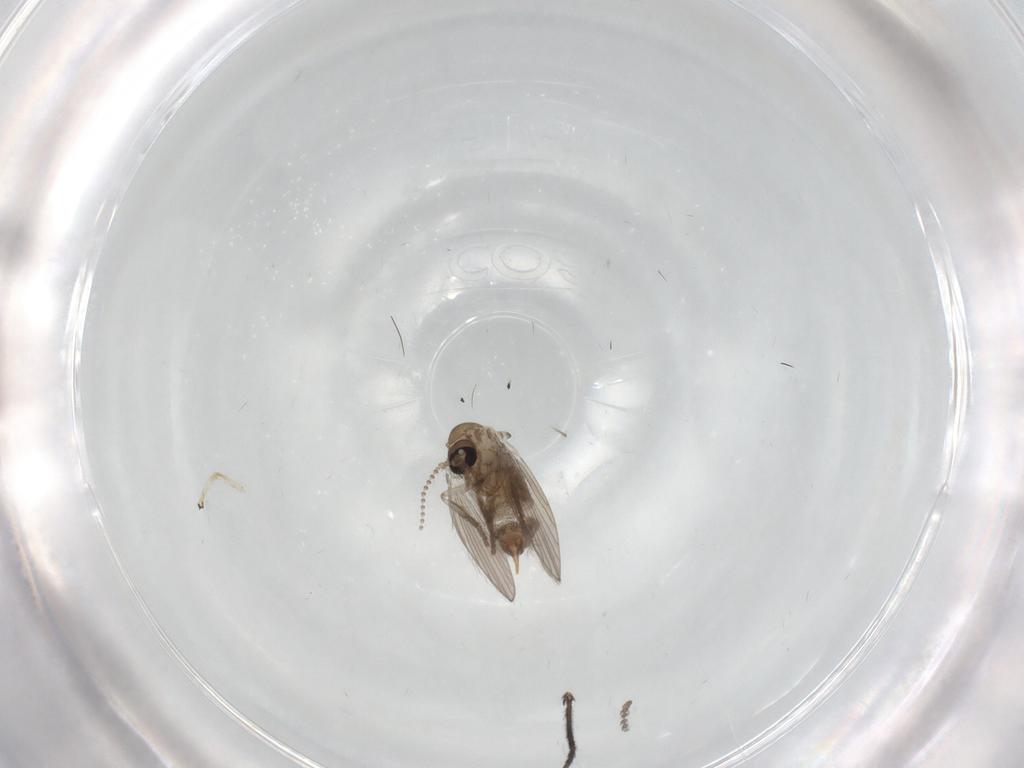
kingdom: Animalia
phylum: Arthropoda
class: Insecta
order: Diptera
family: Sciaridae
